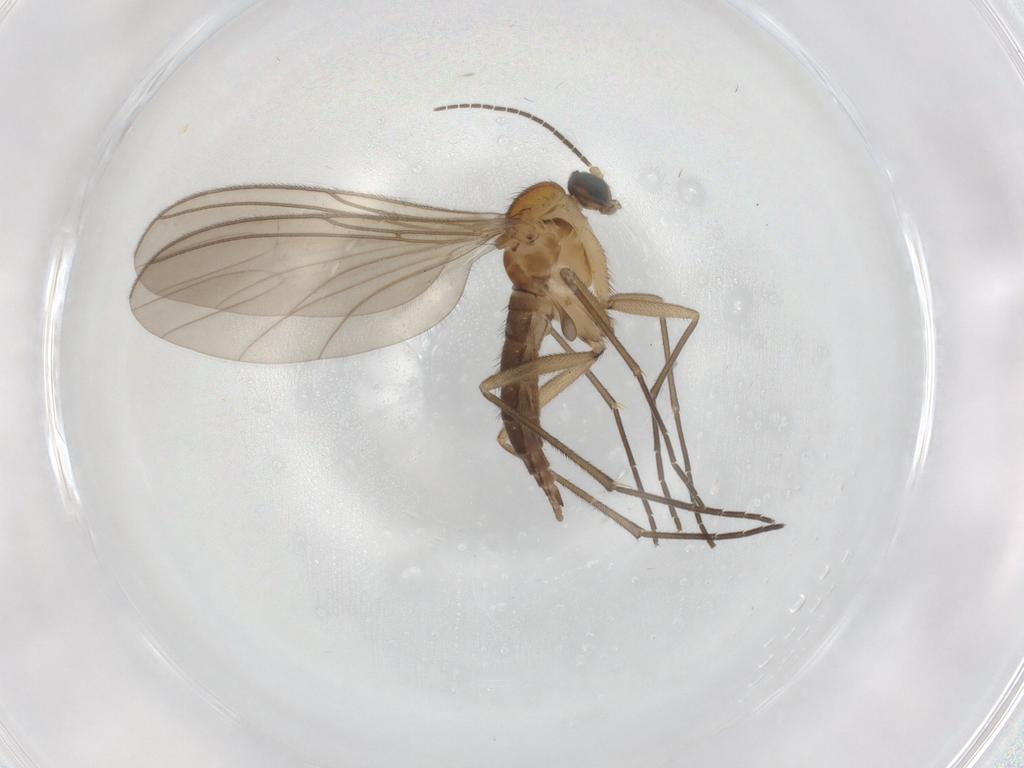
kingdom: Animalia
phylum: Arthropoda
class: Insecta
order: Diptera
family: Sciaridae
